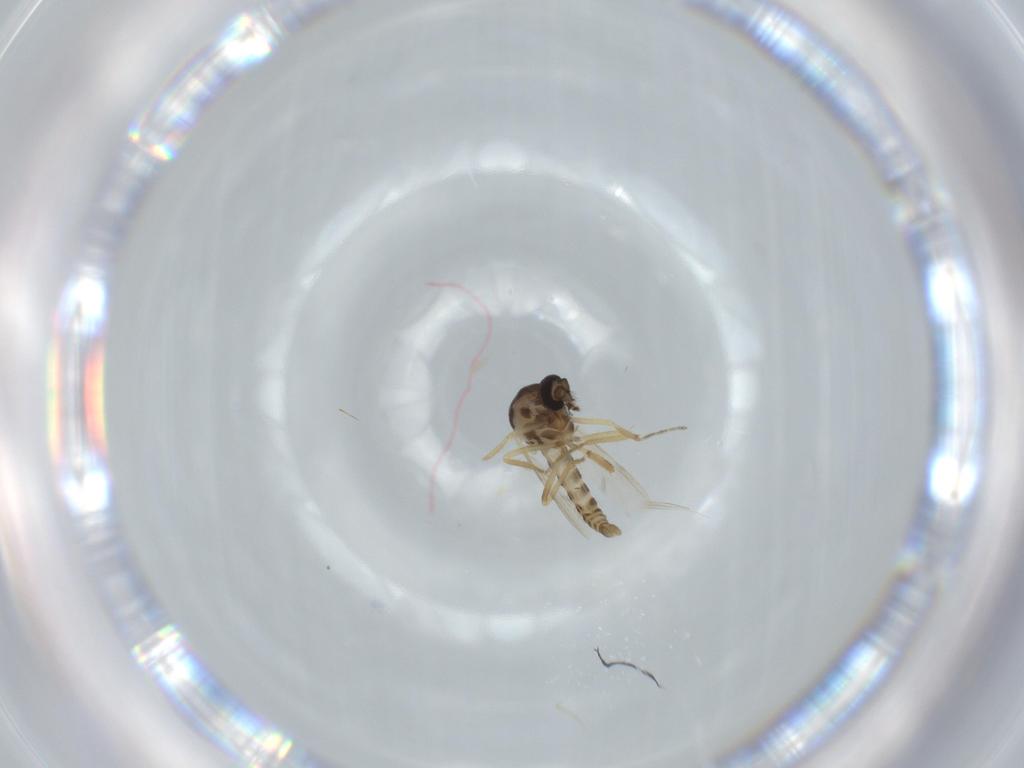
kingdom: Animalia
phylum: Arthropoda
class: Insecta
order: Diptera
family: Ceratopogonidae
